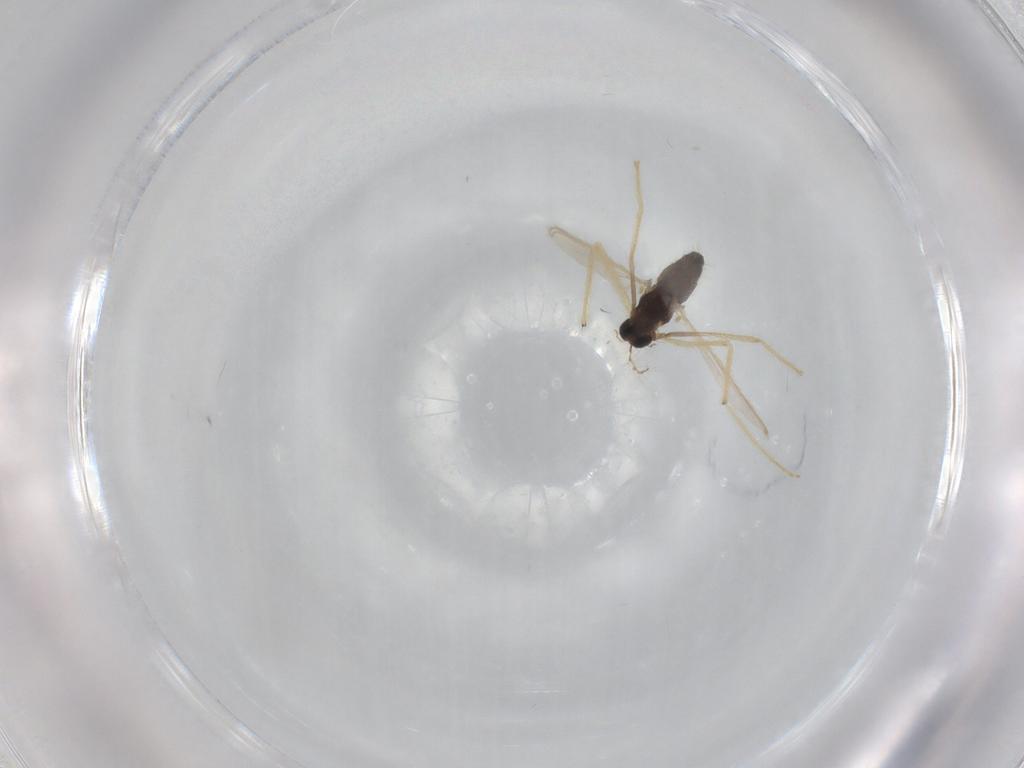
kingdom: Animalia
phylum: Arthropoda
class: Insecta
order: Diptera
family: Chironomidae
